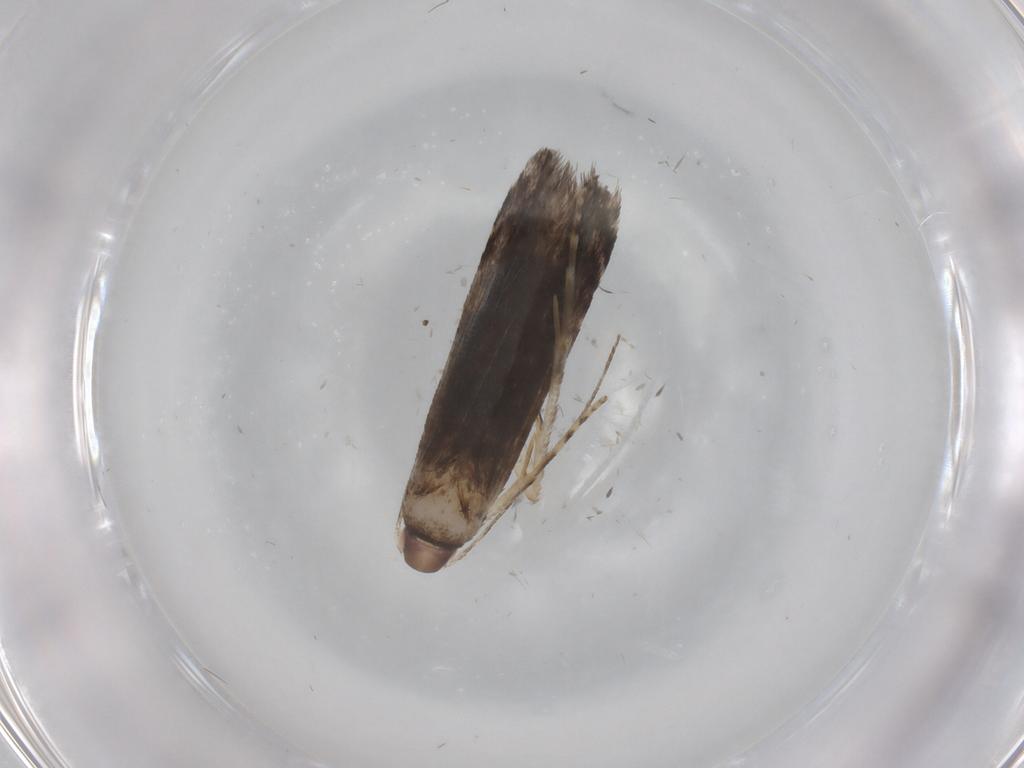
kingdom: Animalia
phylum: Arthropoda
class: Insecta
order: Lepidoptera
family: Gelechiidae
